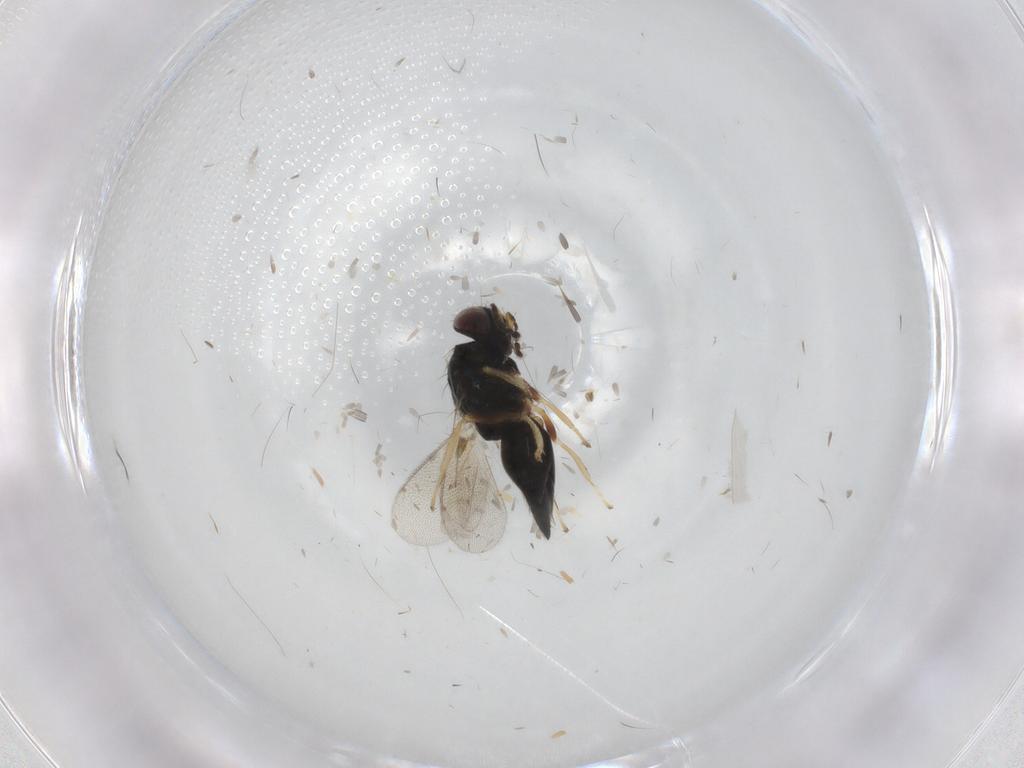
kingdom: Animalia
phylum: Arthropoda
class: Insecta
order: Hymenoptera
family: Eulophidae
